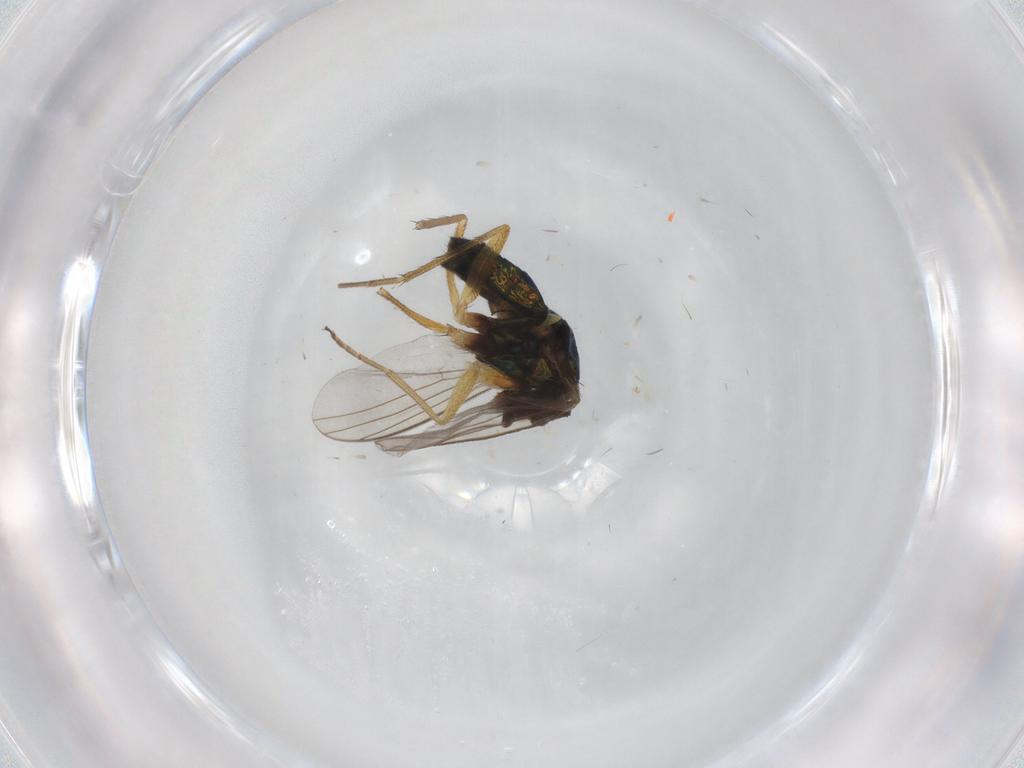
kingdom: Animalia
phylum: Arthropoda
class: Insecta
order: Diptera
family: Dolichopodidae
